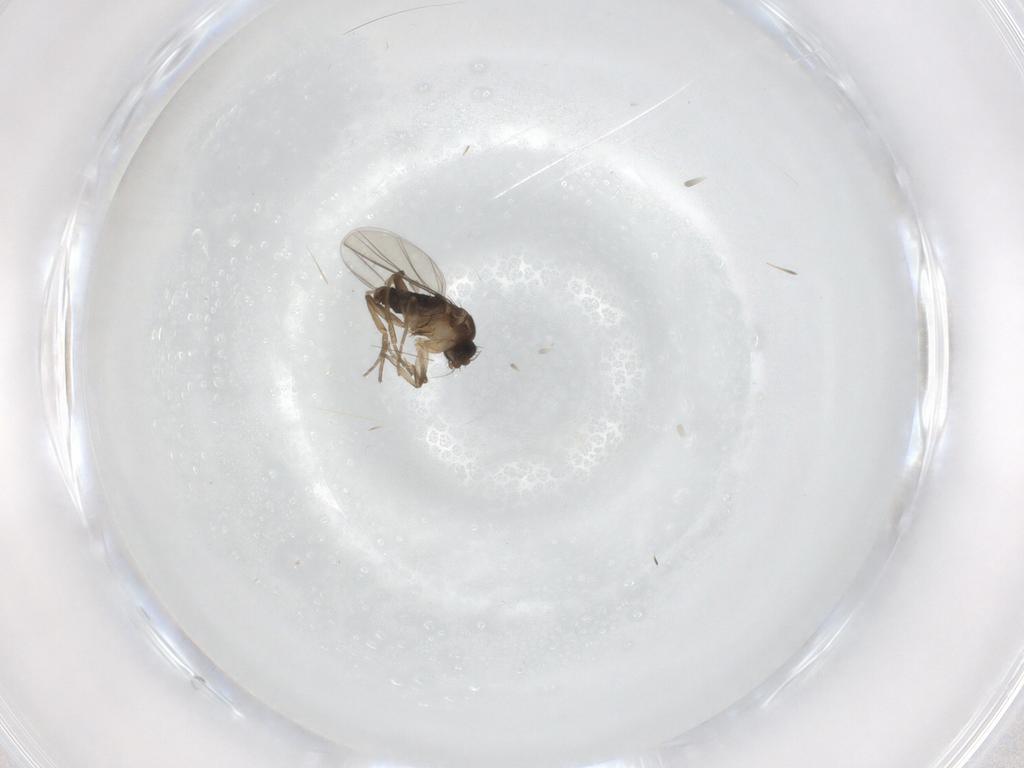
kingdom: Animalia
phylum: Arthropoda
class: Insecta
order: Diptera
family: Phoridae
